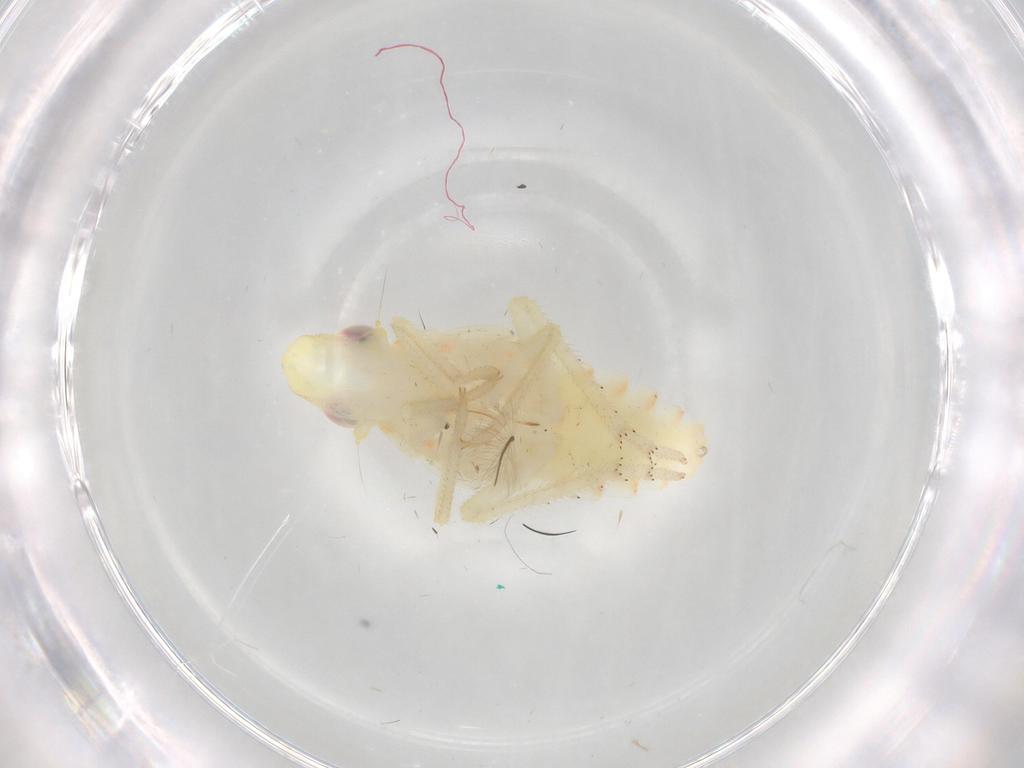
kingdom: Animalia
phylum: Arthropoda
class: Insecta
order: Hemiptera
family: Tropiduchidae
